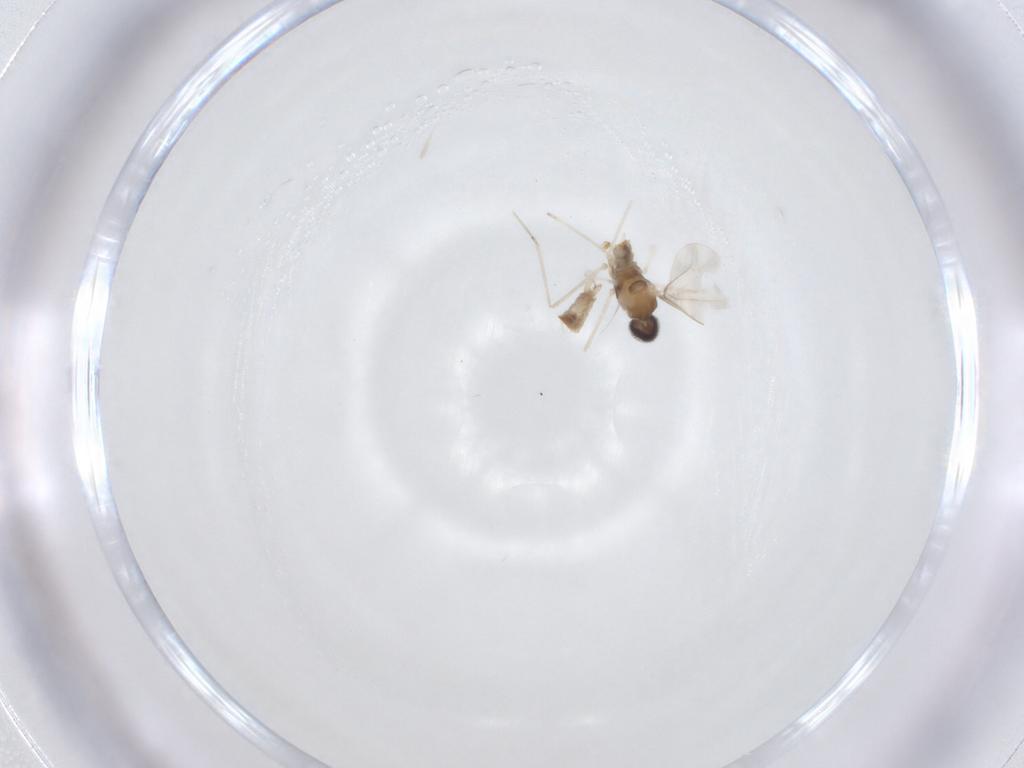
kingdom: Animalia
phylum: Arthropoda
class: Insecta
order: Diptera
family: Cecidomyiidae
